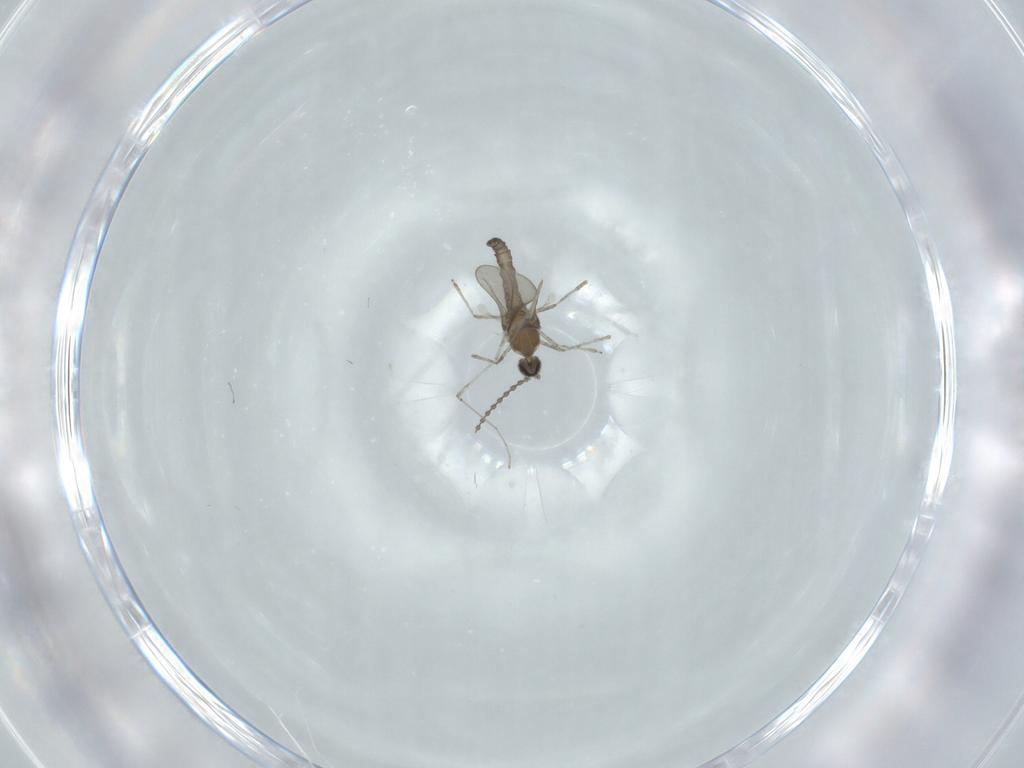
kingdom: Animalia
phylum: Arthropoda
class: Insecta
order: Diptera
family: Cecidomyiidae
